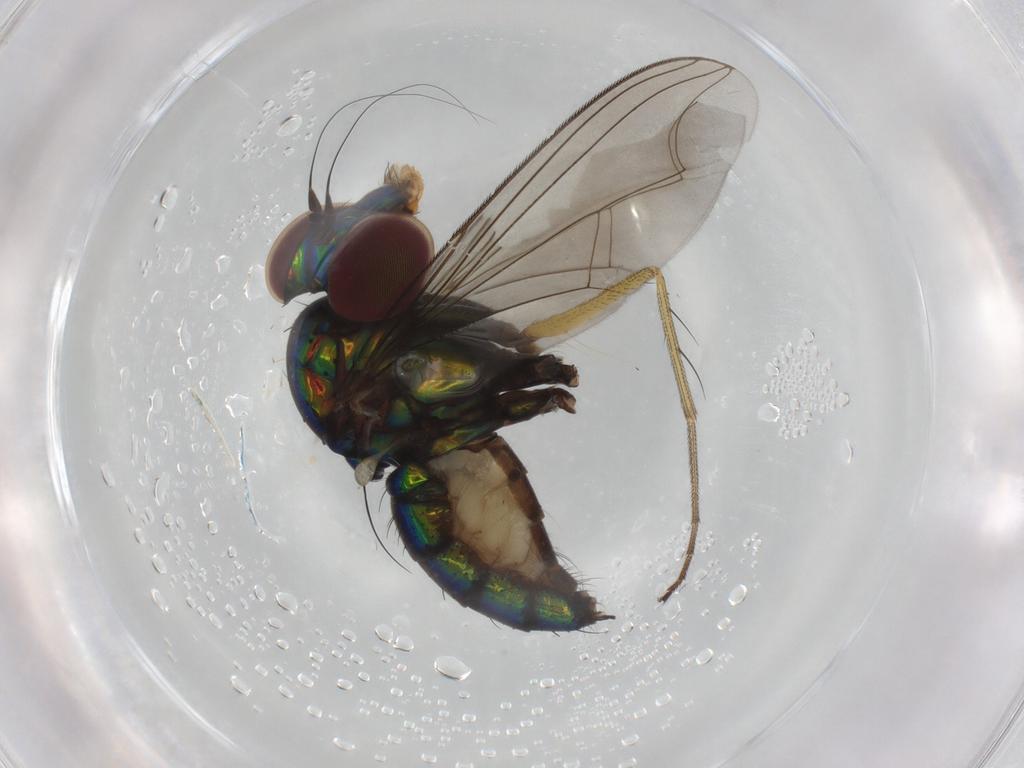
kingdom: Animalia
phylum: Arthropoda
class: Insecta
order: Diptera
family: Dolichopodidae
